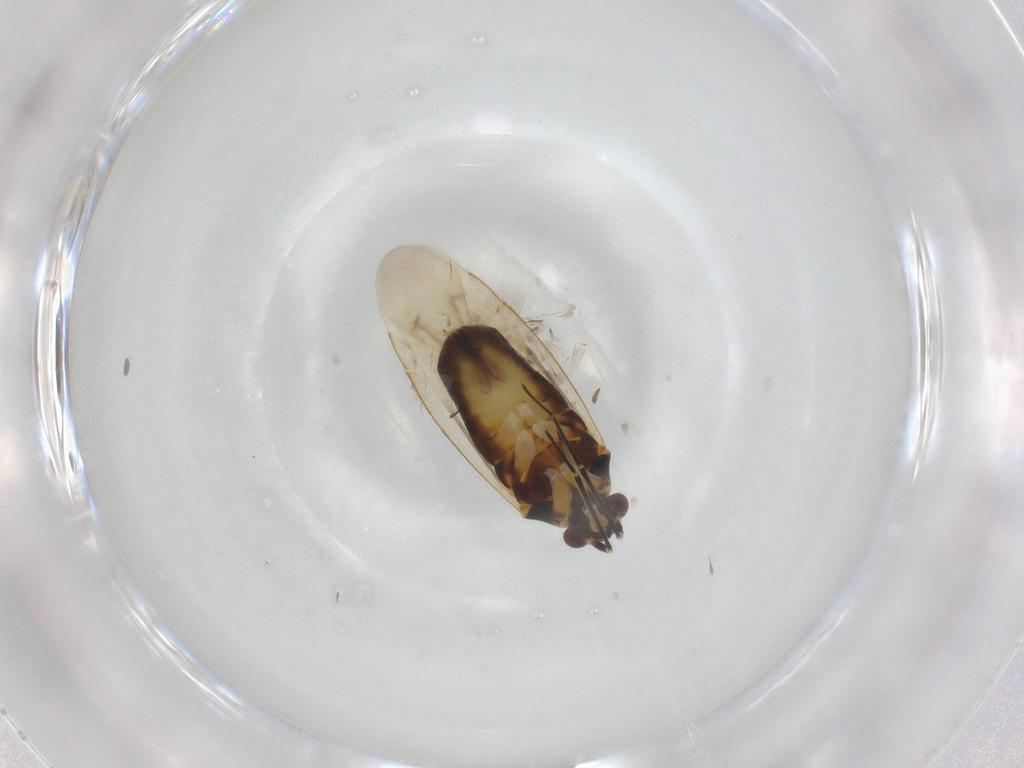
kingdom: Animalia
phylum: Arthropoda
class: Insecta
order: Hemiptera
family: Miridae
